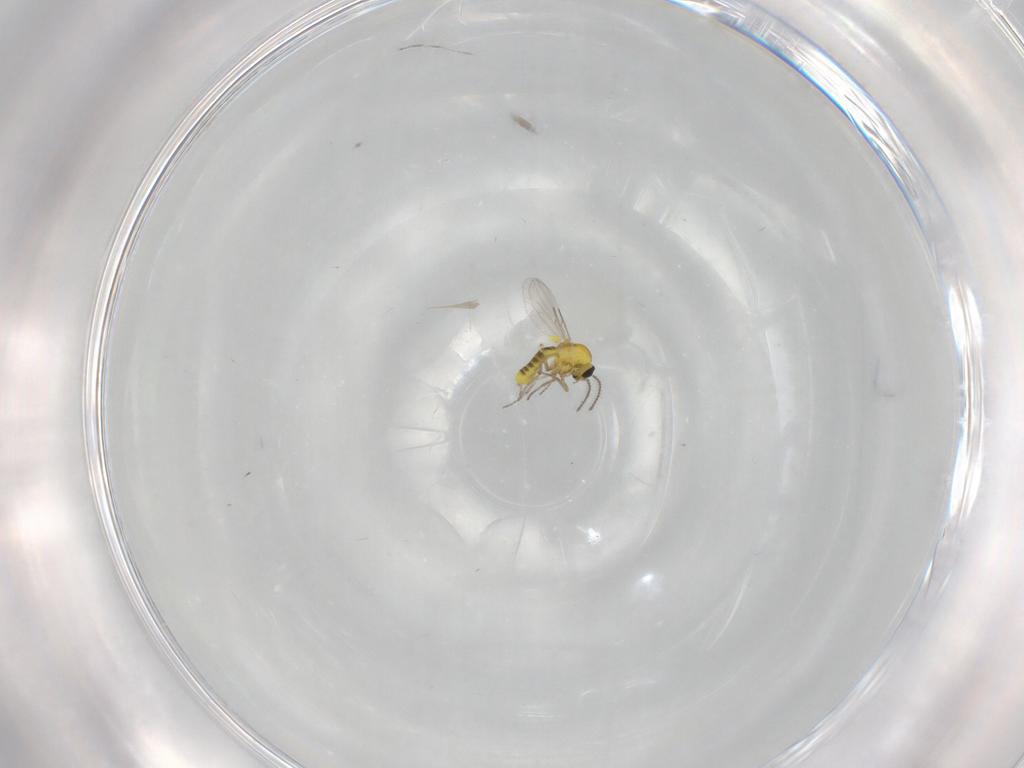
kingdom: Animalia
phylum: Arthropoda
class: Insecta
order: Diptera
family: Ceratopogonidae
